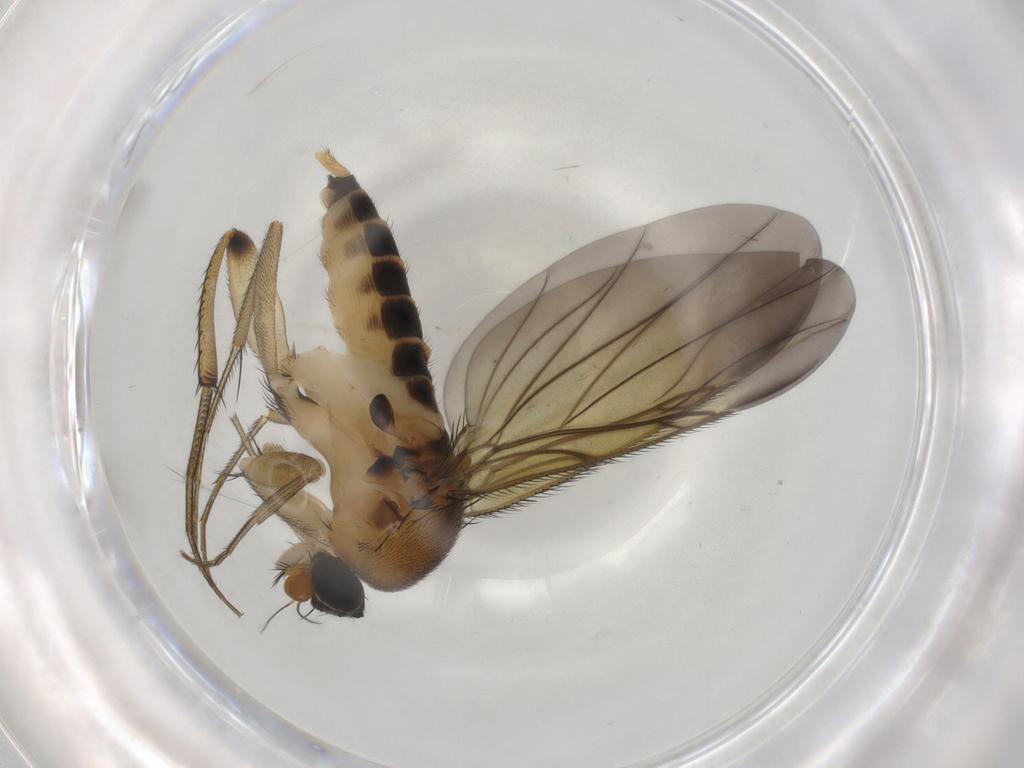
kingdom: Animalia
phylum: Arthropoda
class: Insecta
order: Diptera
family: Phoridae
